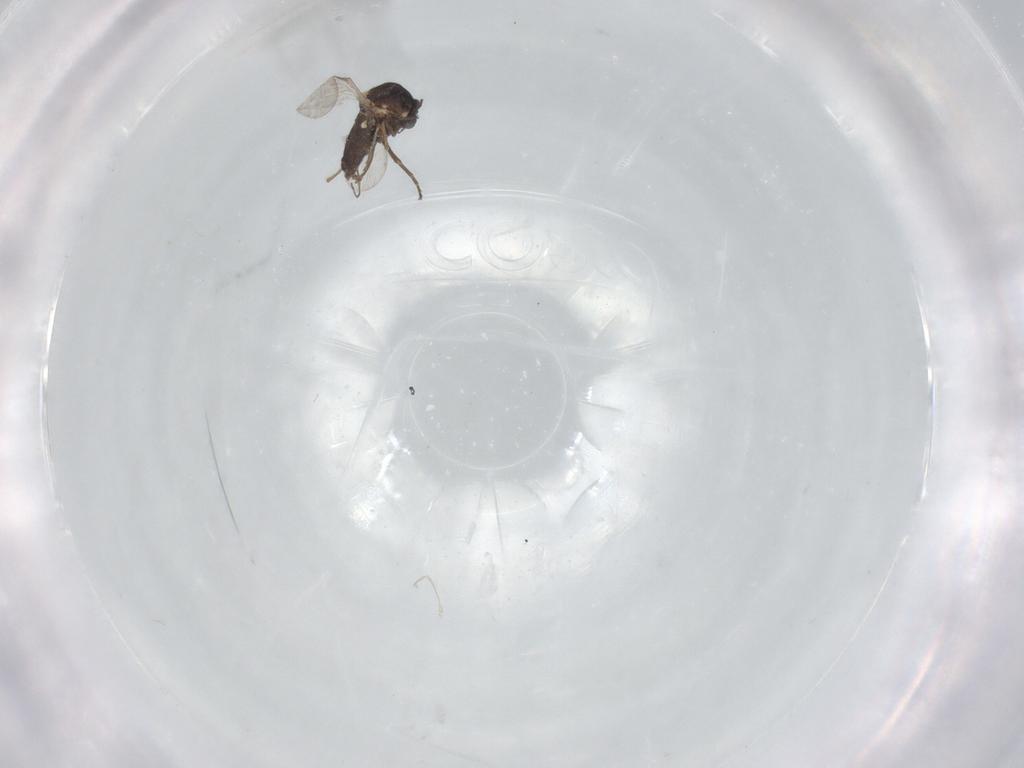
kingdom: Animalia
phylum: Arthropoda
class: Insecta
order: Diptera
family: Ceratopogonidae
